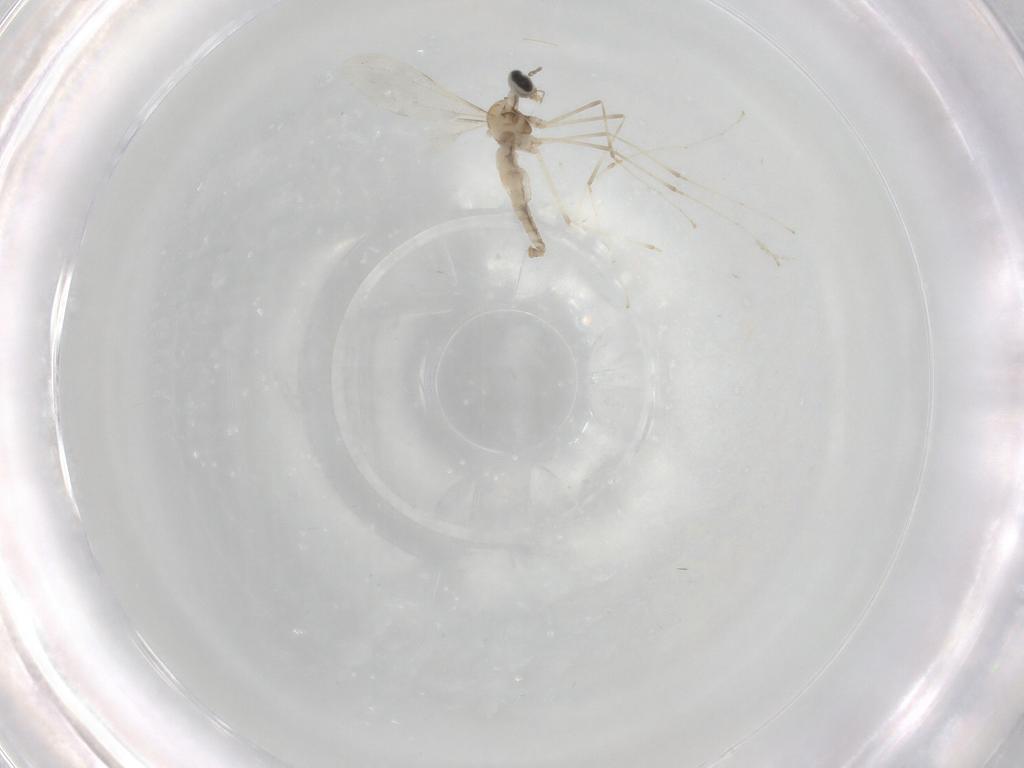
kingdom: Animalia
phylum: Arthropoda
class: Insecta
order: Diptera
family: Cecidomyiidae
